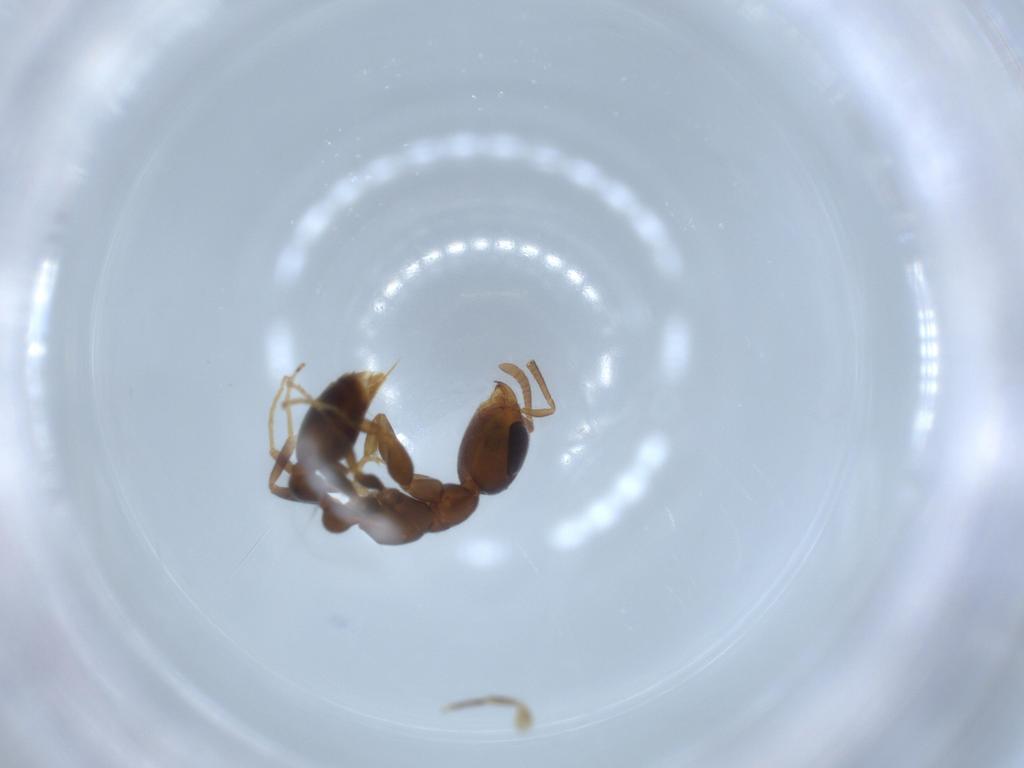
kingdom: Animalia
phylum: Arthropoda
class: Insecta
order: Hymenoptera
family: Formicidae
